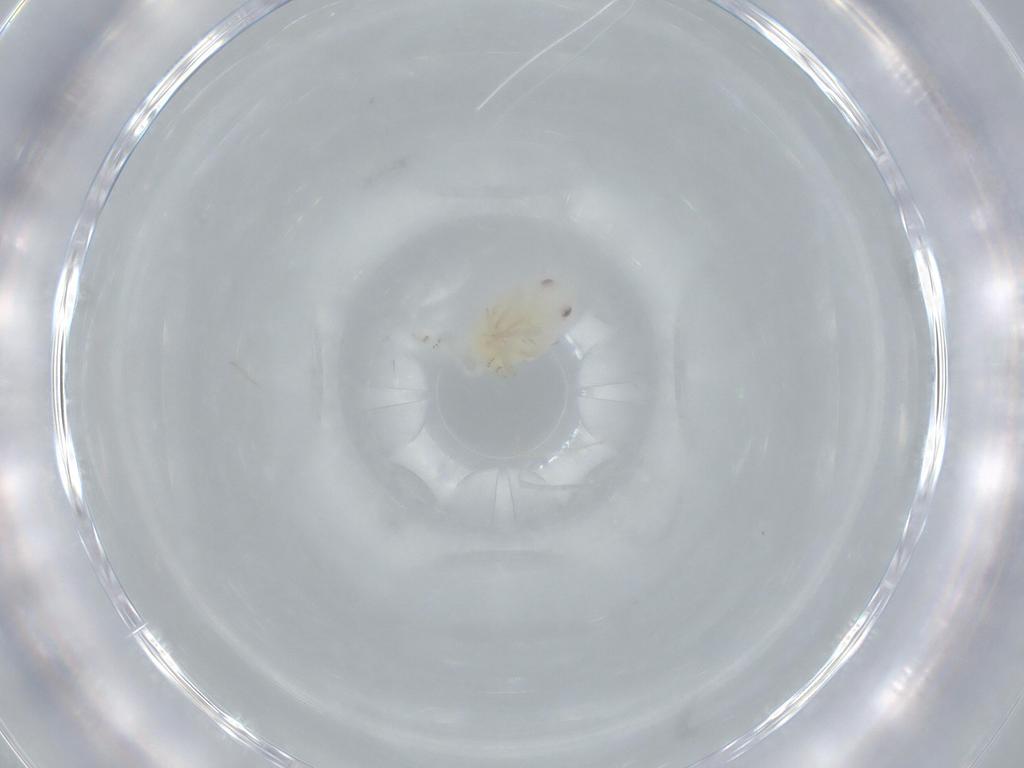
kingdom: Animalia
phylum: Arthropoda
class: Insecta
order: Hemiptera
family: Flatidae
